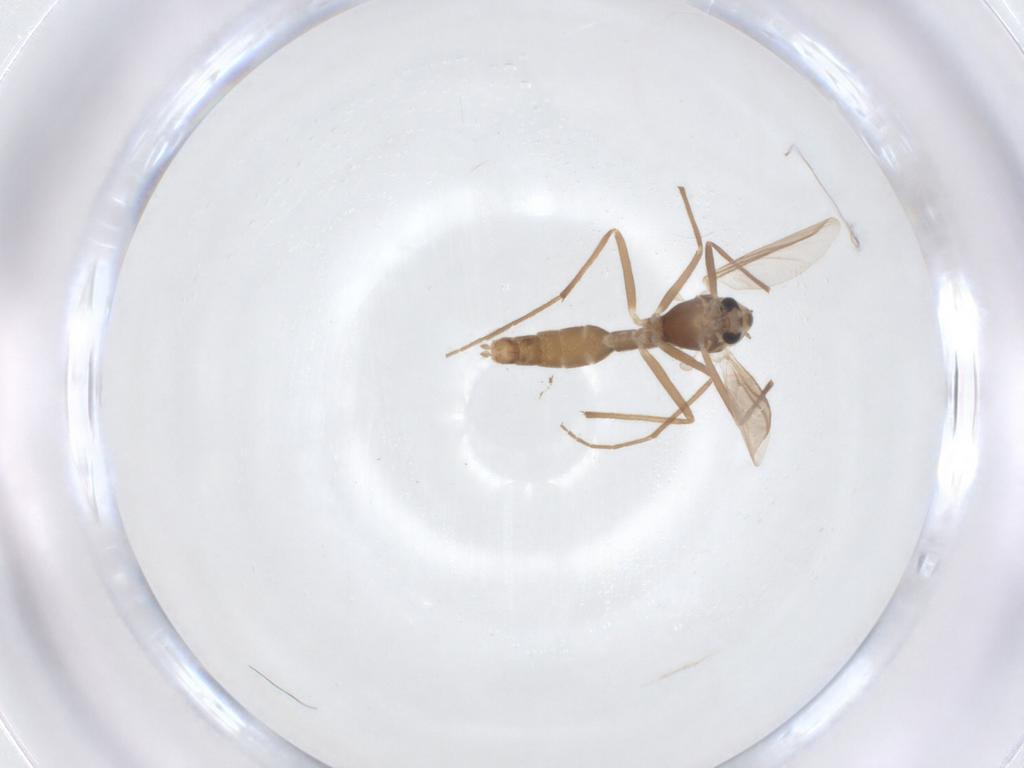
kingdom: Animalia
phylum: Arthropoda
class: Insecta
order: Diptera
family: Chironomidae
